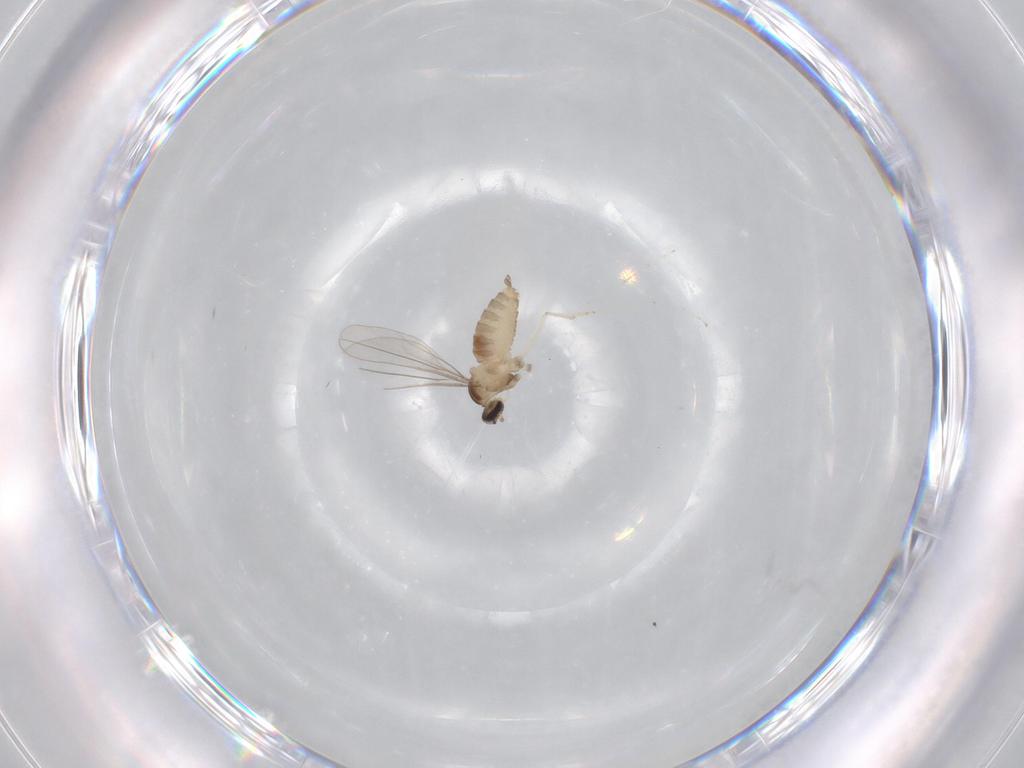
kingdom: Animalia
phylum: Arthropoda
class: Insecta
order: Diptera
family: Cecidomyiidae
